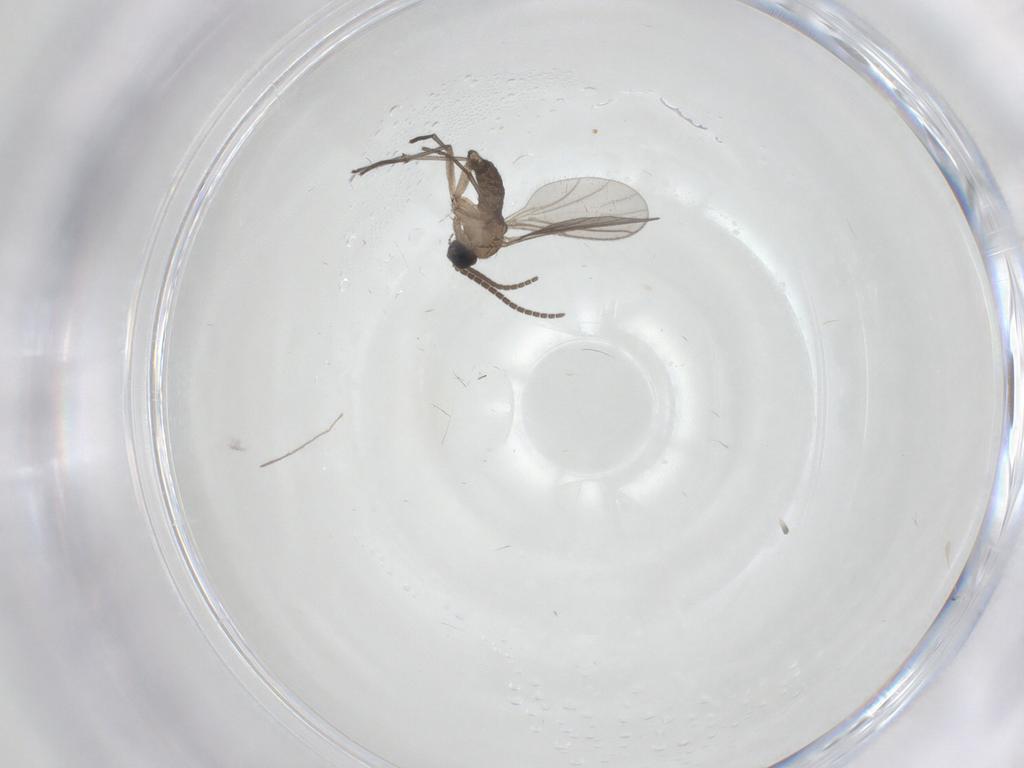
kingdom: Animalia
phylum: Arthropoda
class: Insecta
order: Diptera
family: Sciaridae
